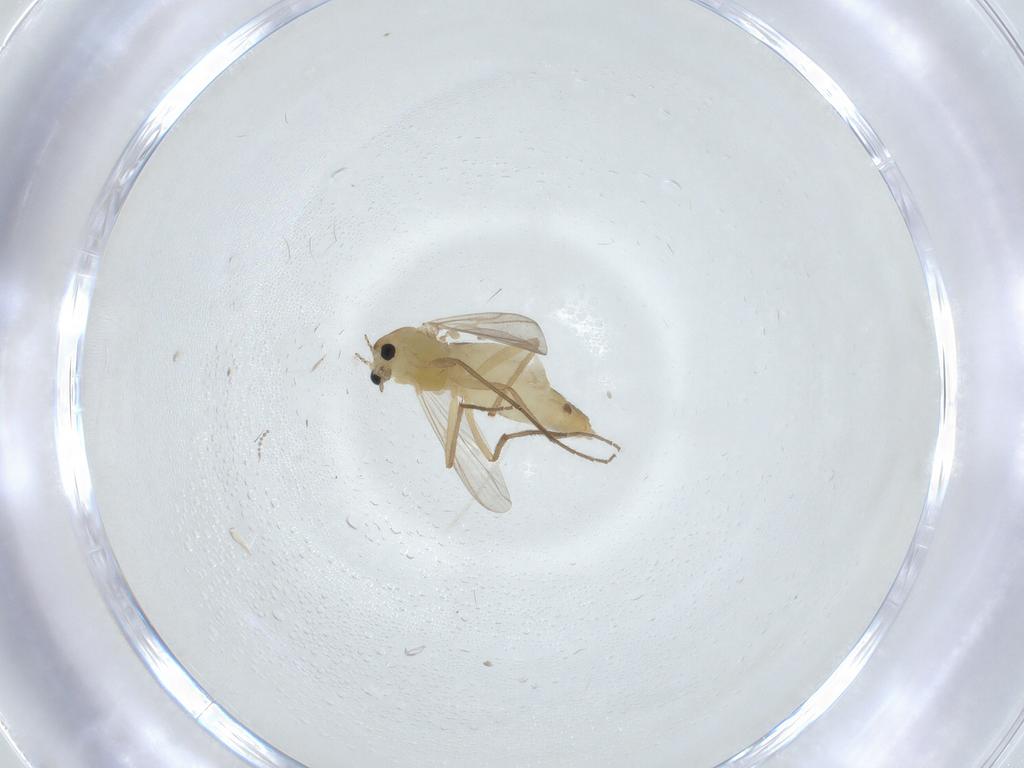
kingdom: Animalia
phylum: Arthropoda
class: Insecta
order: Diptera
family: Chironomidae
